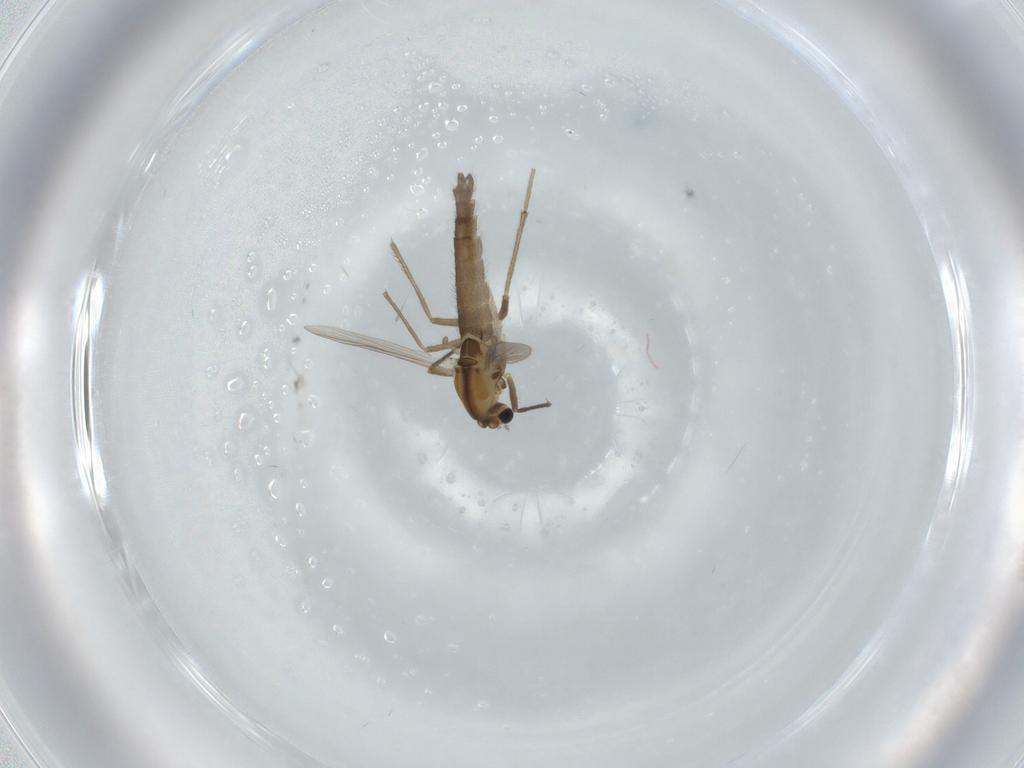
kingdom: Animalia
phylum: Arthropoda
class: Insecta
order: Diptera
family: Chironomidae
